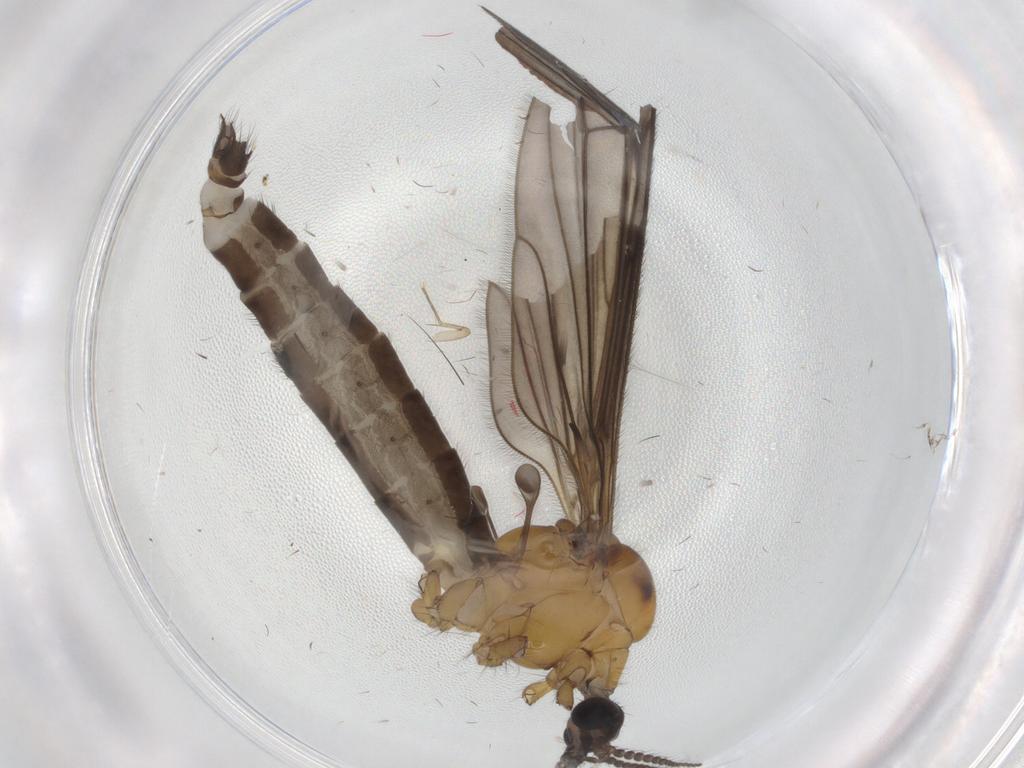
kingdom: Animalia
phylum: Arthropoda
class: Insecta
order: Diptera
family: Limoniidae
